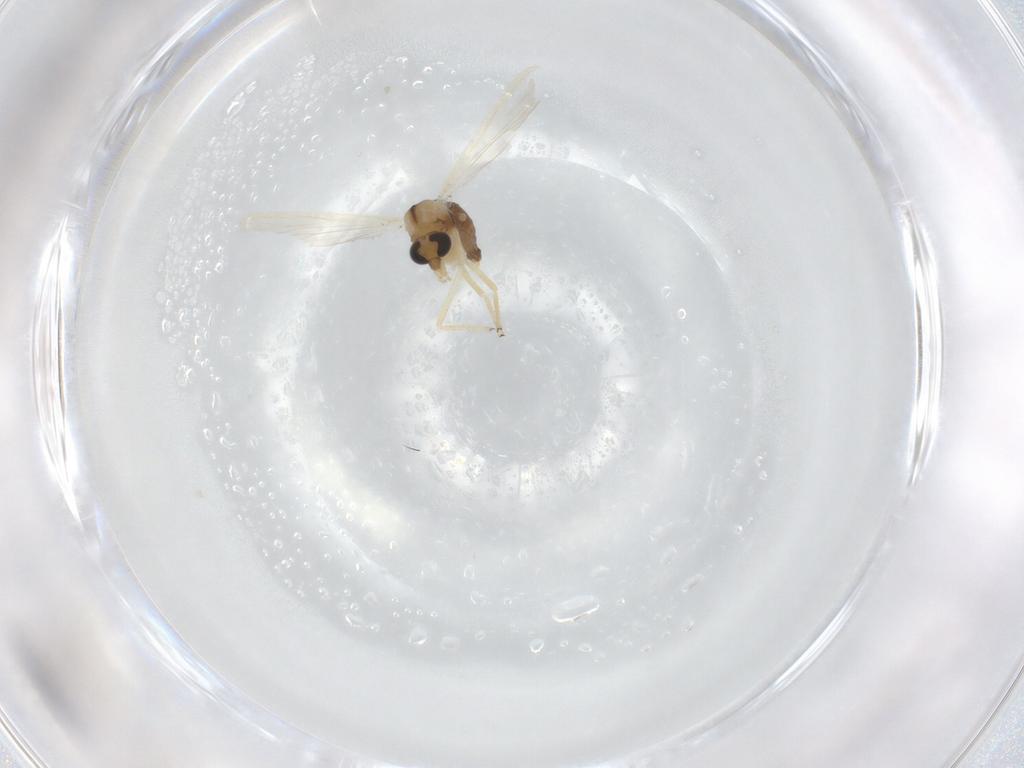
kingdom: Animalia
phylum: Arthropoda
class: Insecta
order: Diptera
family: Chironomidae
